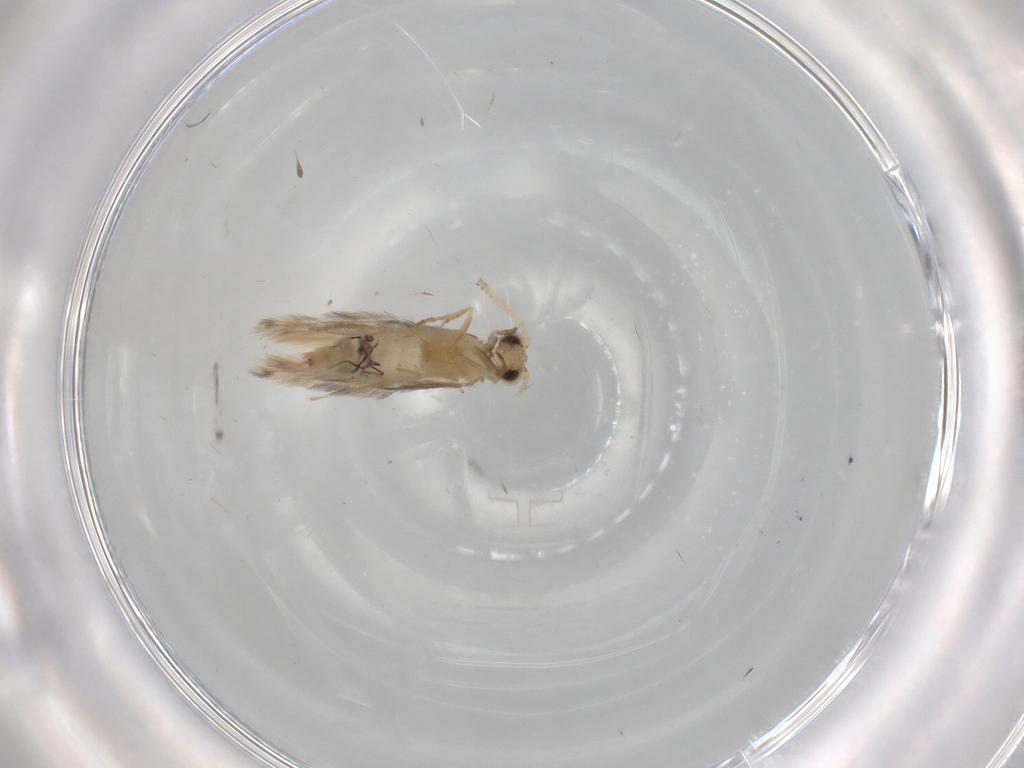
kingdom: Animalia
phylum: Arthropoda
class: Insecta
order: Trichoptera
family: Hydroptilidae
